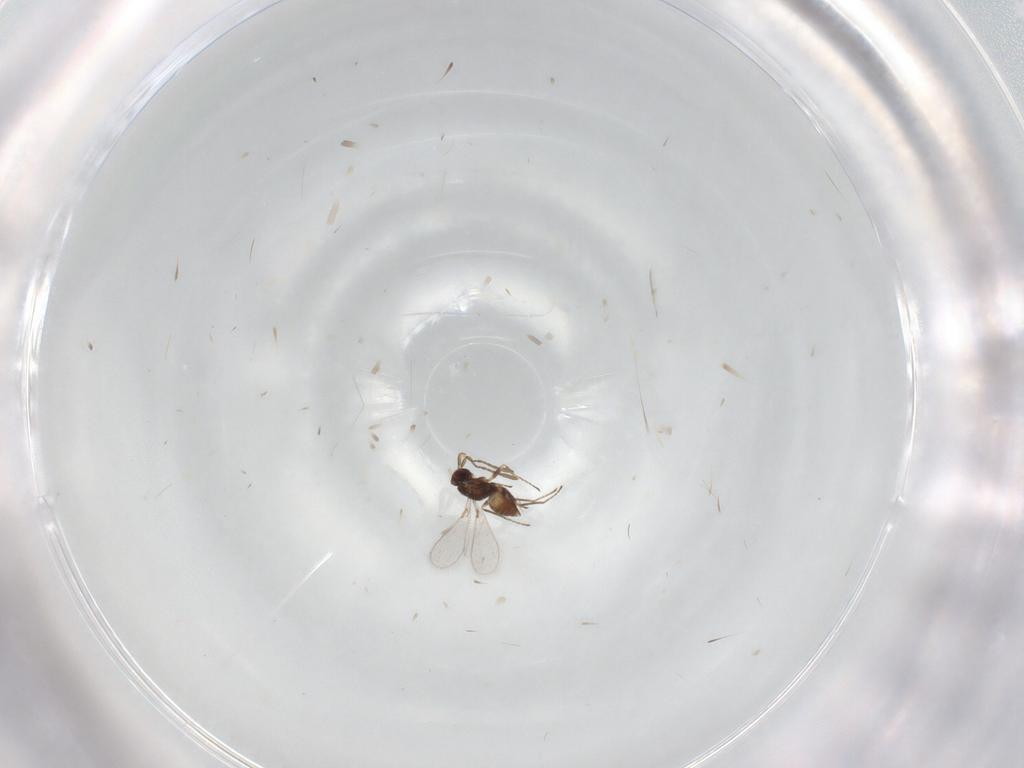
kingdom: Animalia
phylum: Arthropoda
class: Insecta
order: Hymenoptera
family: Mymaridae
